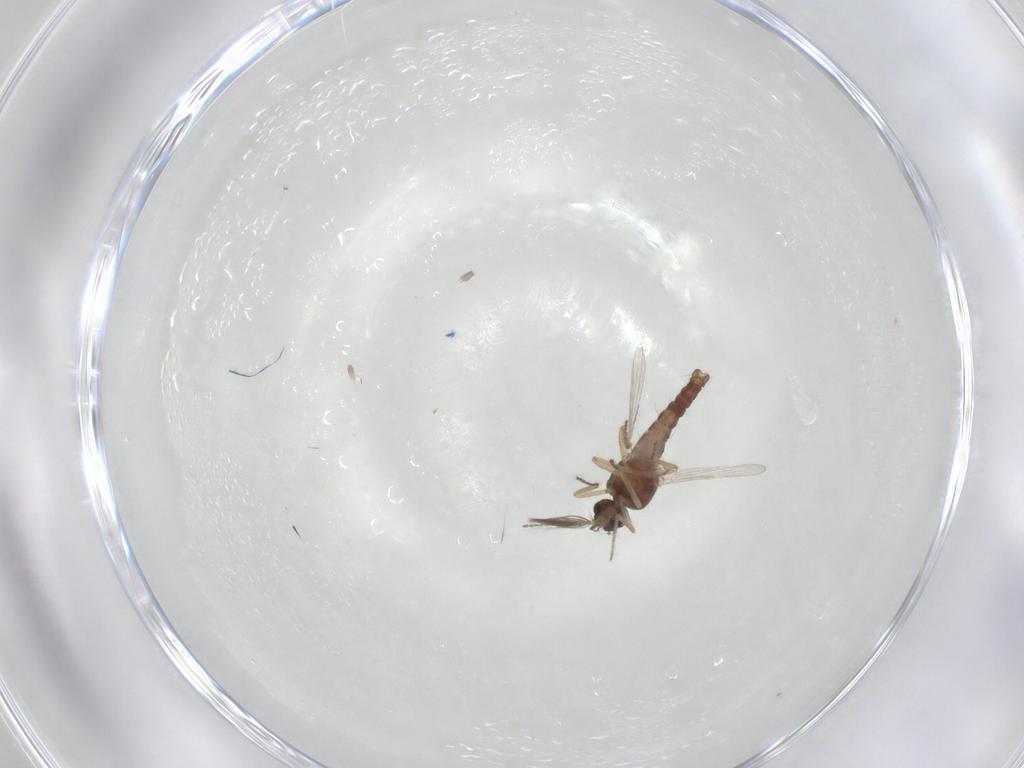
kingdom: Animalia
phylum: Arthropoda
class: Insecta
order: Diptera
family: Ceratopogonidae
